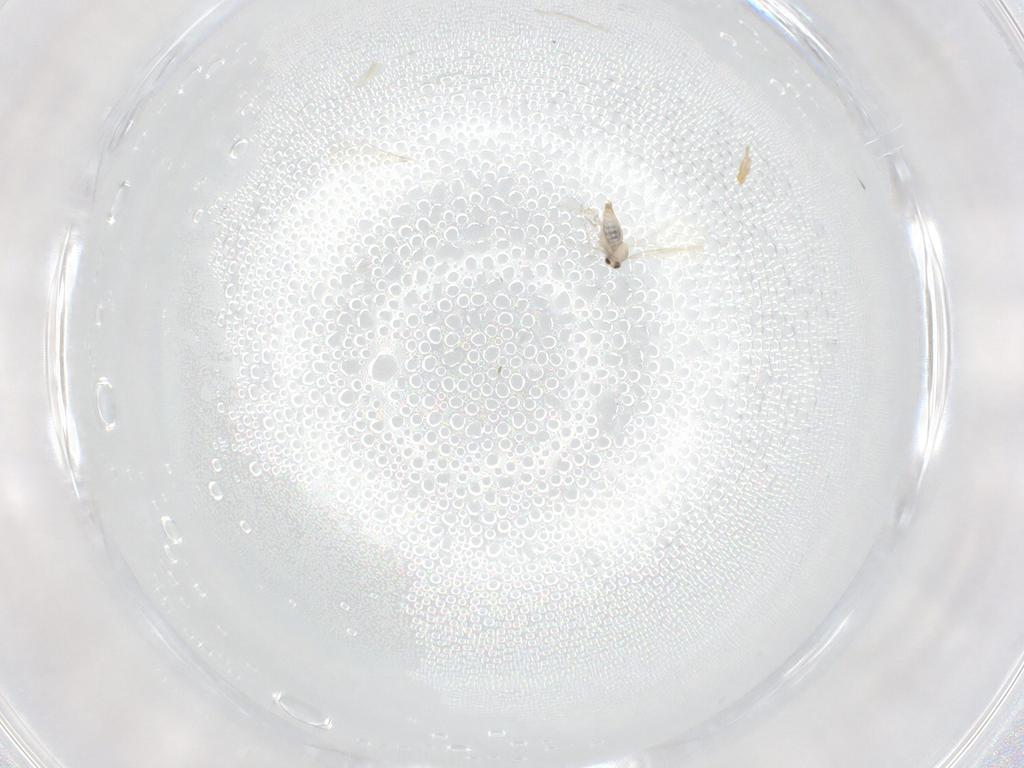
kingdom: Animalia
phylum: Arthropoda
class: Insecta
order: Diptera
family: Cecidomyiidae
